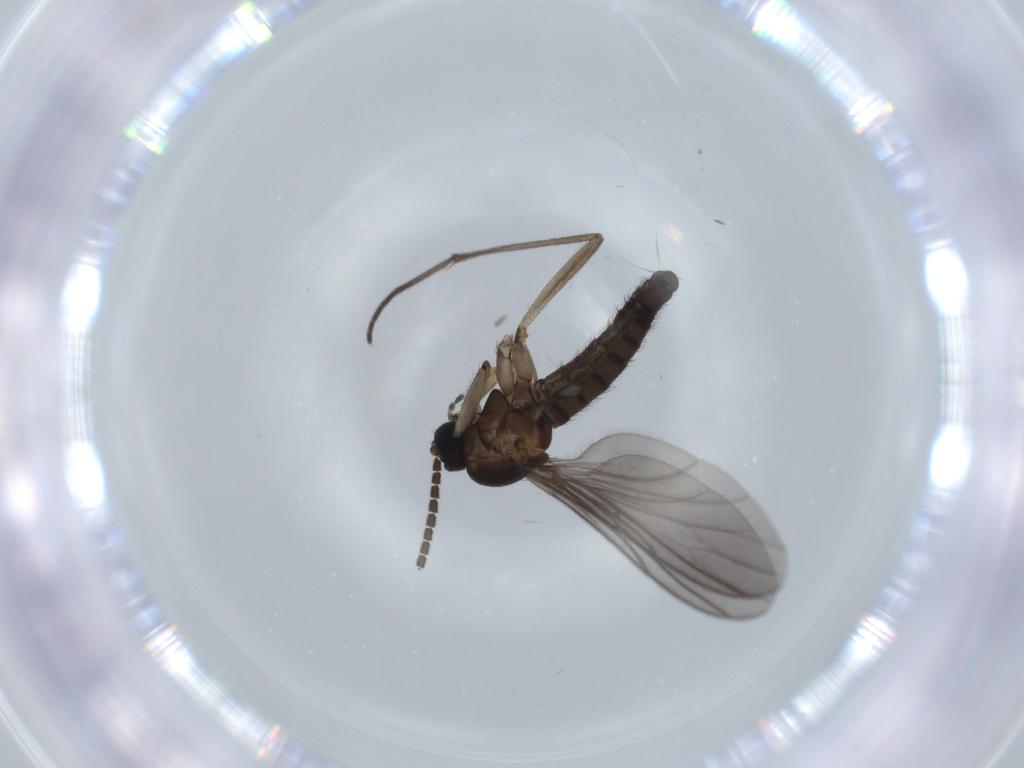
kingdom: Animalia
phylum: Arthropoda
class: Insecta
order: Diptera
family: Sciaridae
